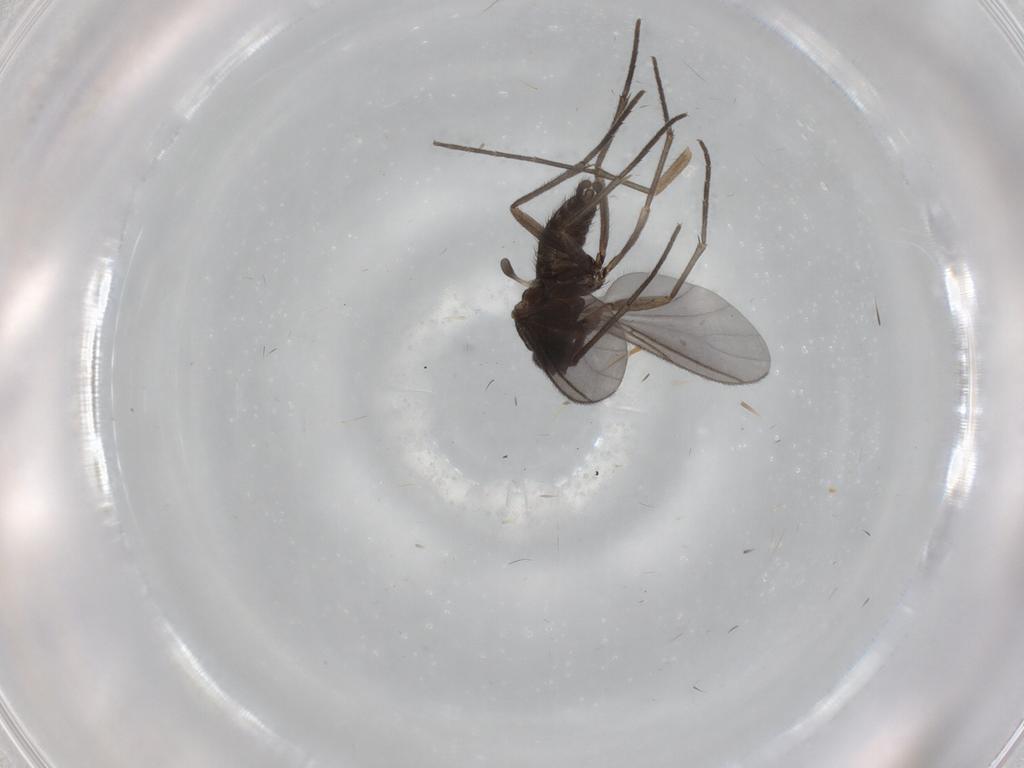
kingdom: Animalia
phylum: Arthropoda
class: Insecta
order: Diptera
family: Mycetophilidae
